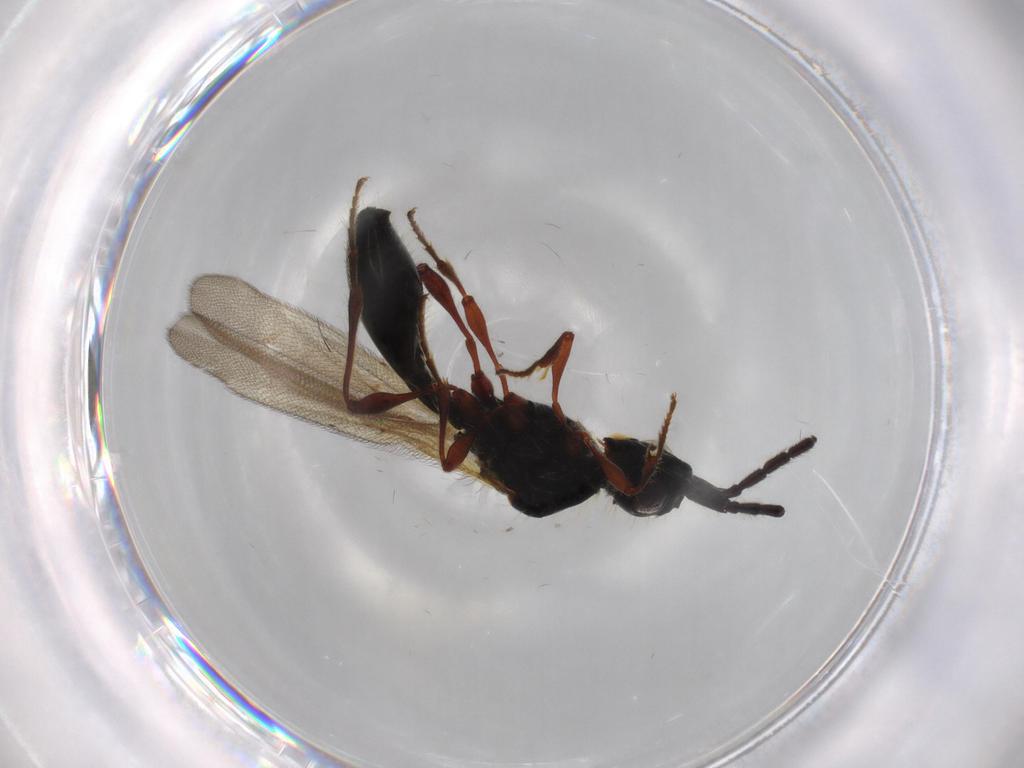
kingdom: Animalia
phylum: Arthropoda
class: Insecta
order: Hymenoptera
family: Diapriidae
